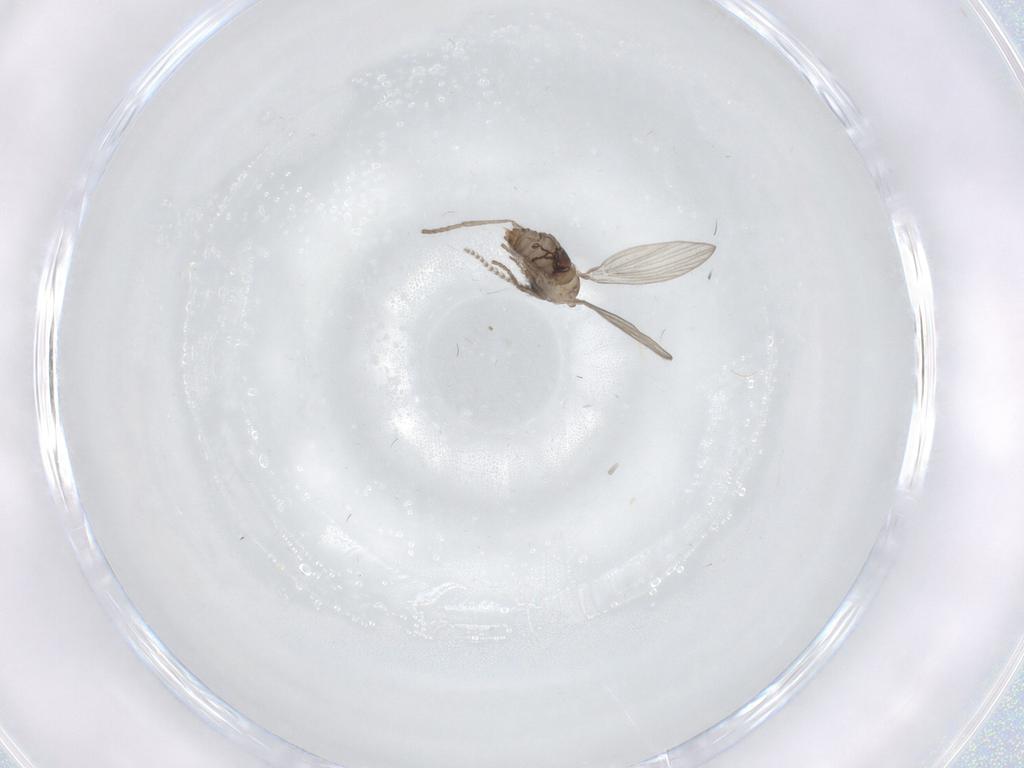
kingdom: Animalia
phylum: Arthropoda
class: Insecta
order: Diptera
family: Psychodidae
